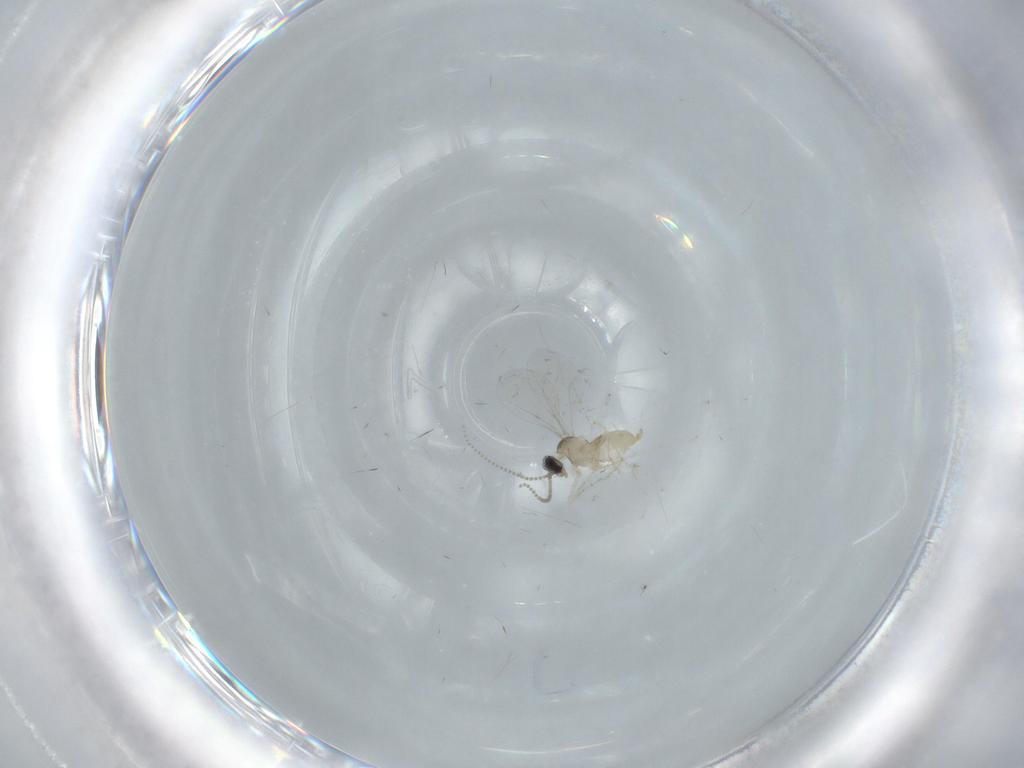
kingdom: Animalia
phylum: Arthropoda
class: Insecta
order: Diptera
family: Cecidomyiidae
